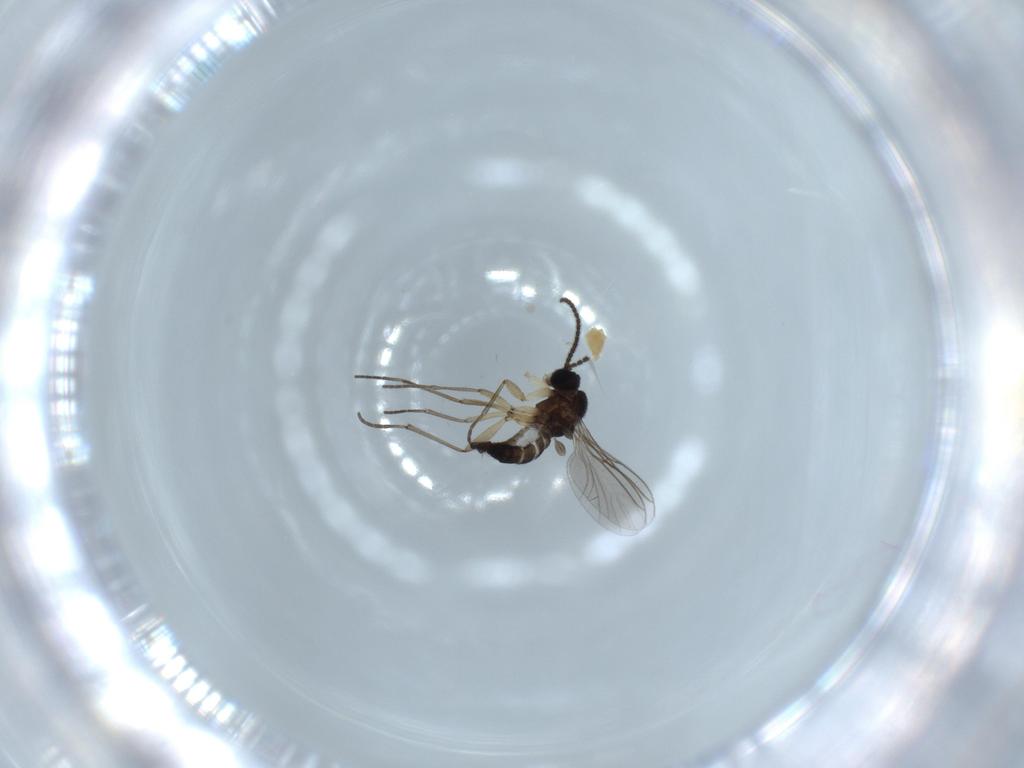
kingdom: Animalia
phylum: Arthropoda
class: Insecta
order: Diptera
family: Sciaridae
